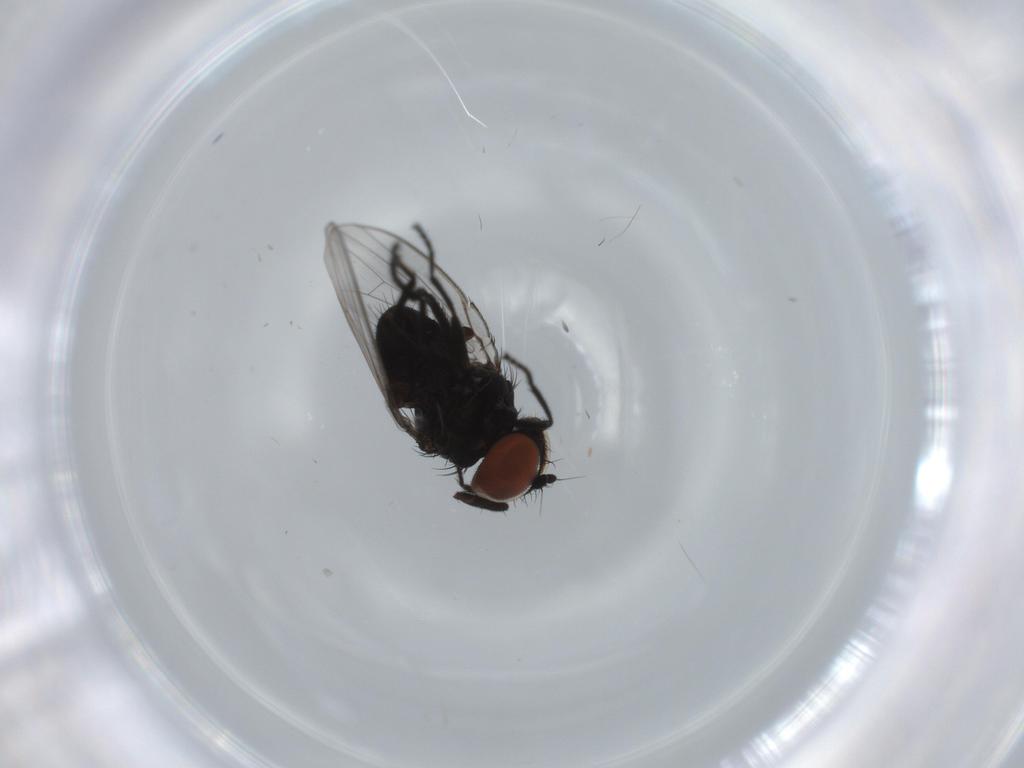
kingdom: Animalia
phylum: Arthropoda
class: Insecta
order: Diptera
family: Milichiidae
